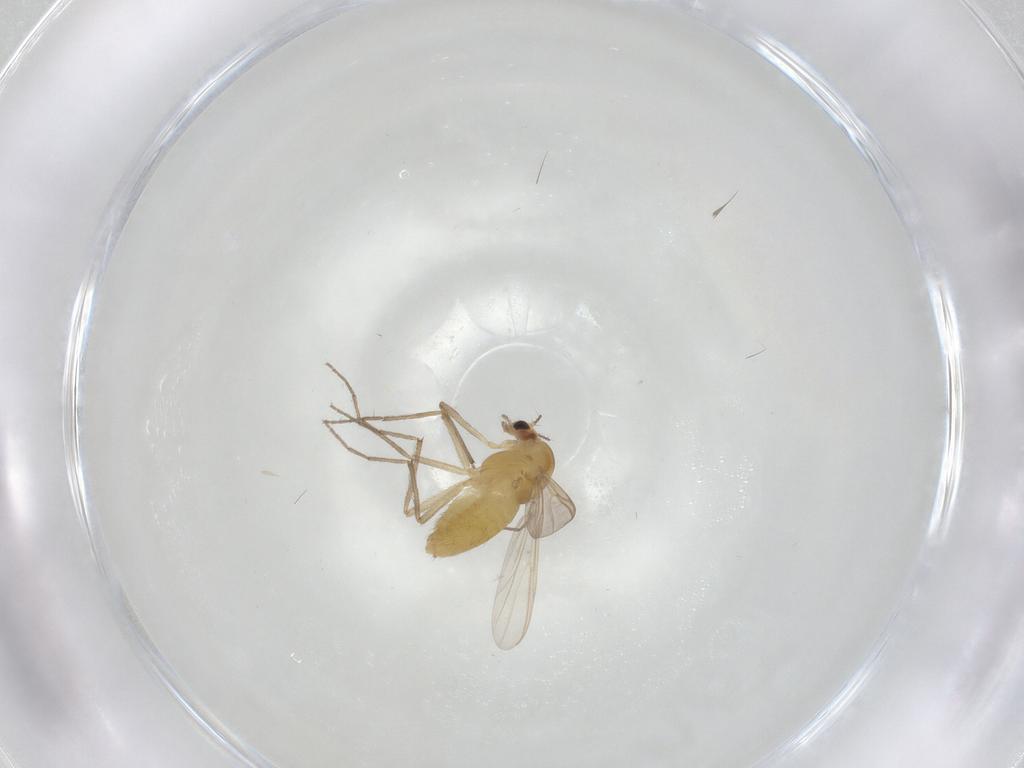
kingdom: Animalia
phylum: Arthropoda
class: Insecta
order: Diptera
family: Chironomidae
